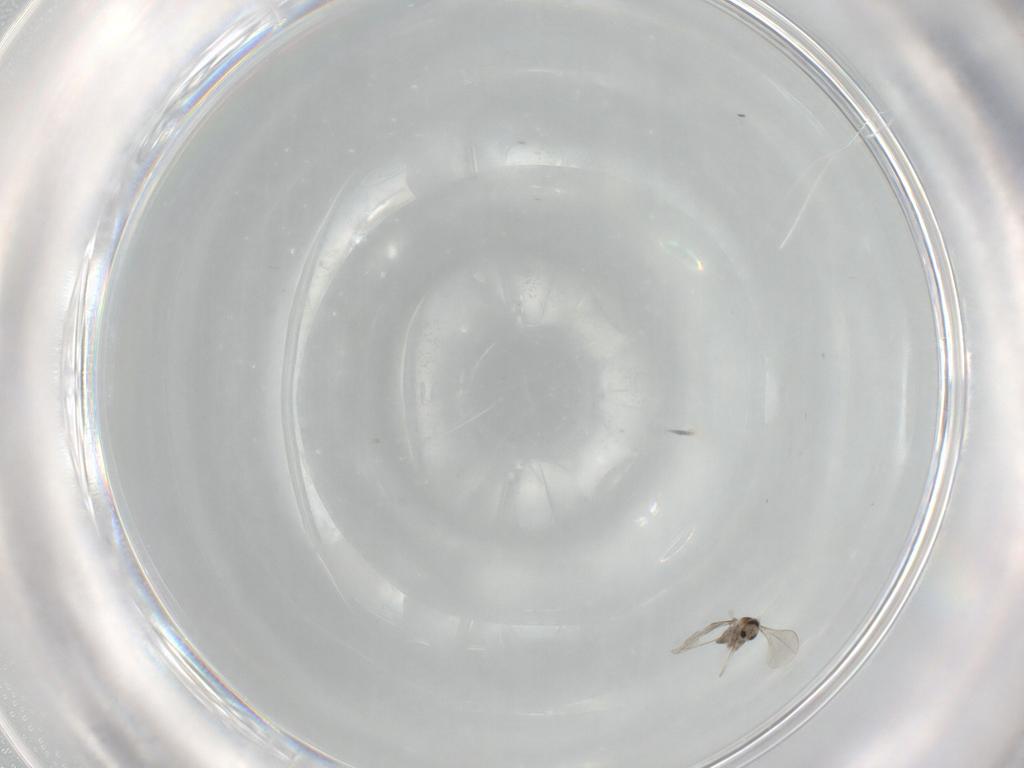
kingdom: Animalia
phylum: Arthropoda
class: Insecta
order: Diptera
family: Cecidomyiidae
